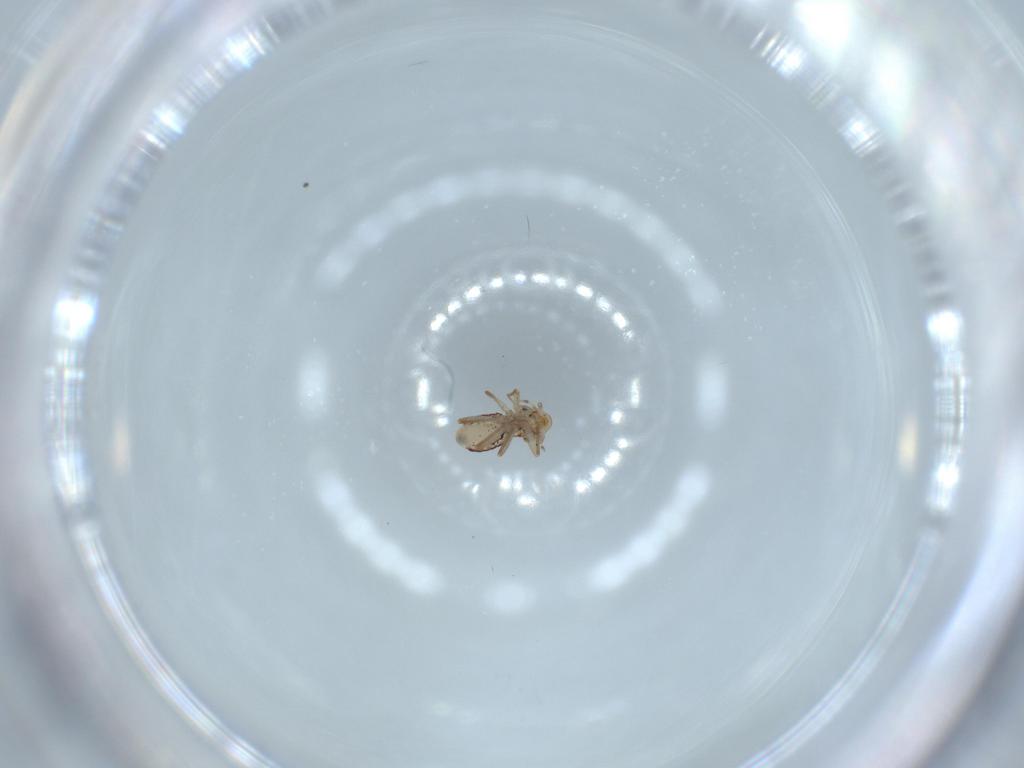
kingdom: Animalia
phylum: Arthropoda
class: Insecta
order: Psocodea
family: Lepidopsocidae
